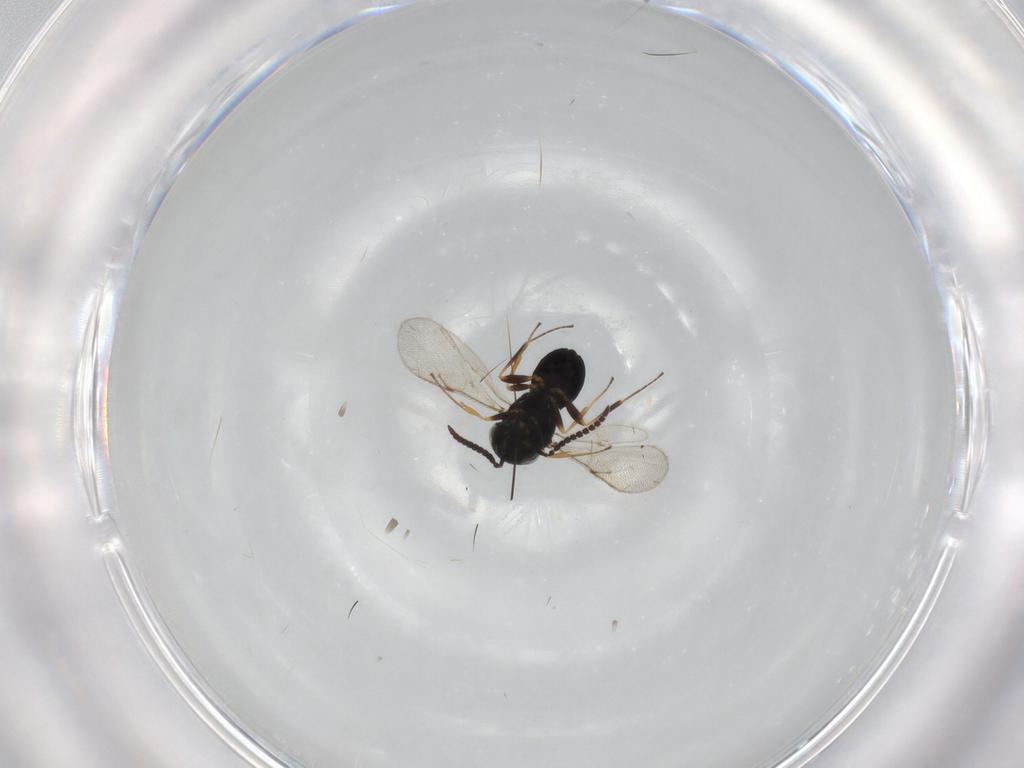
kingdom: Animalia
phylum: Arthropoda
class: Insecta
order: Hymenoptera
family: Scelionidae
